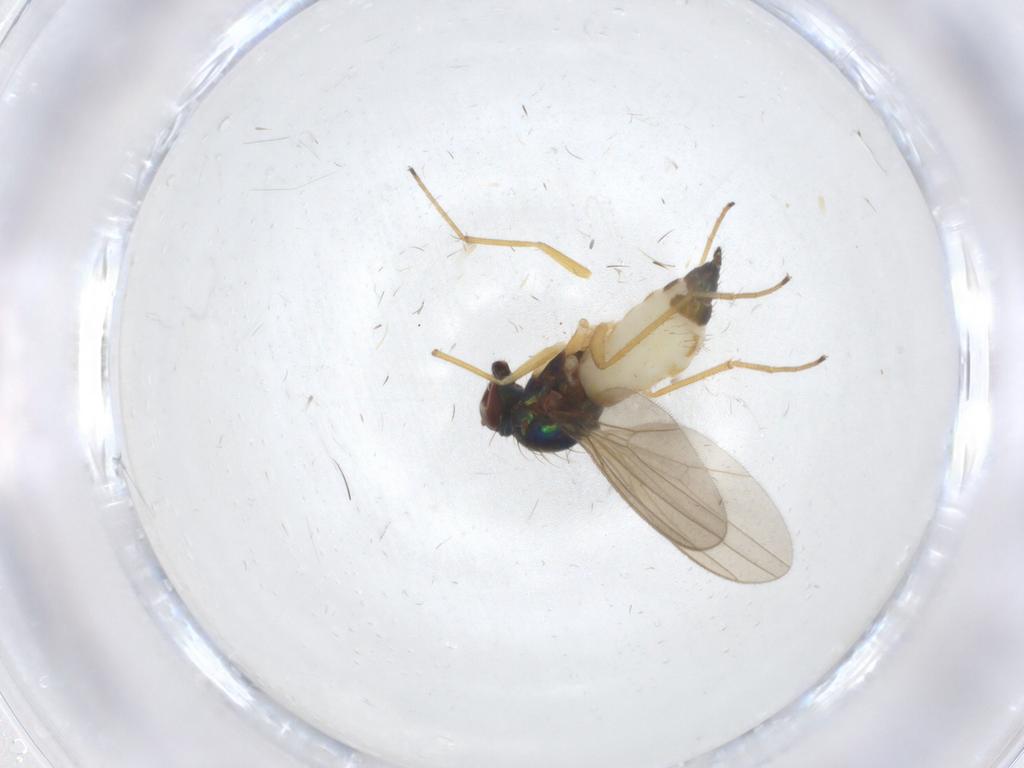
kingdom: Animalia
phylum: Arthropoda
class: Insecta
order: Diptera
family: Dolichopodidae
